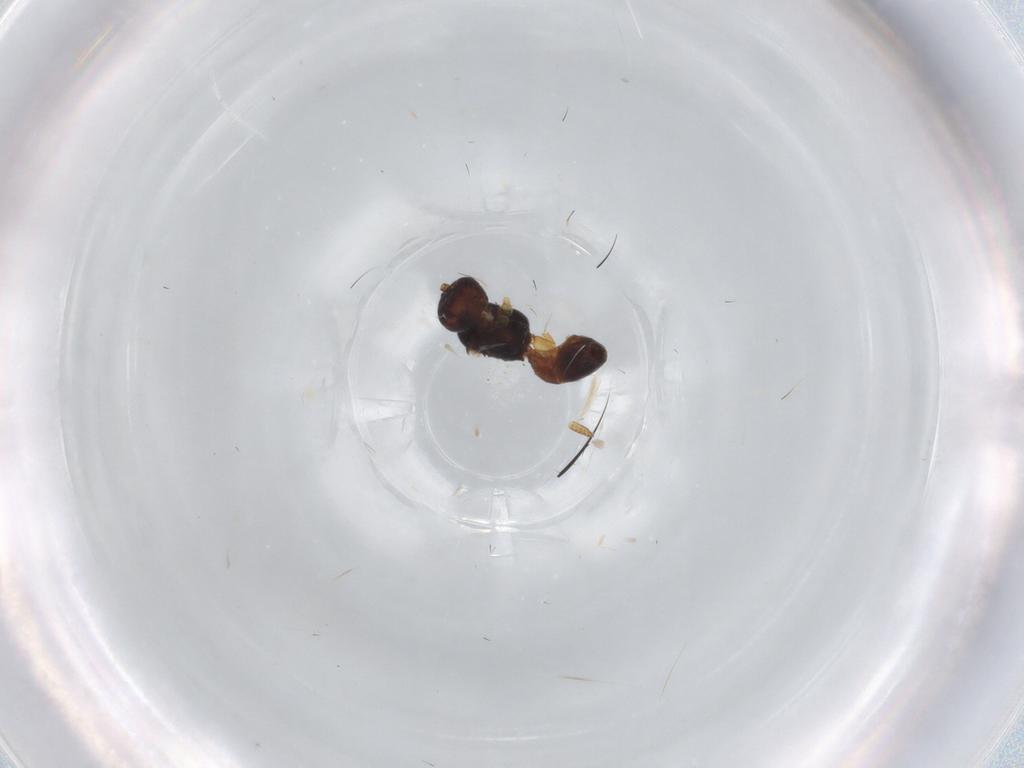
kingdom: Animalia
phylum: Arthropoda
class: Insecta
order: Hymenoptera
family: Braconidae
